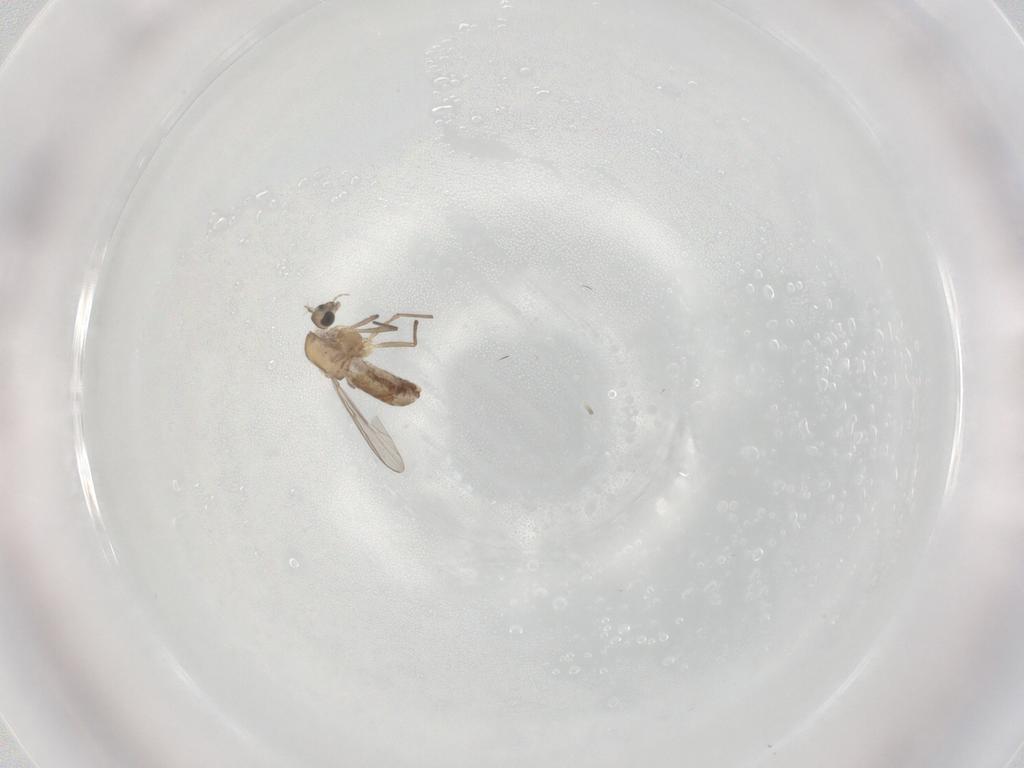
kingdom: Animalia
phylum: Arthropoda
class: Insecta
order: Diptera
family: Chironomidae
